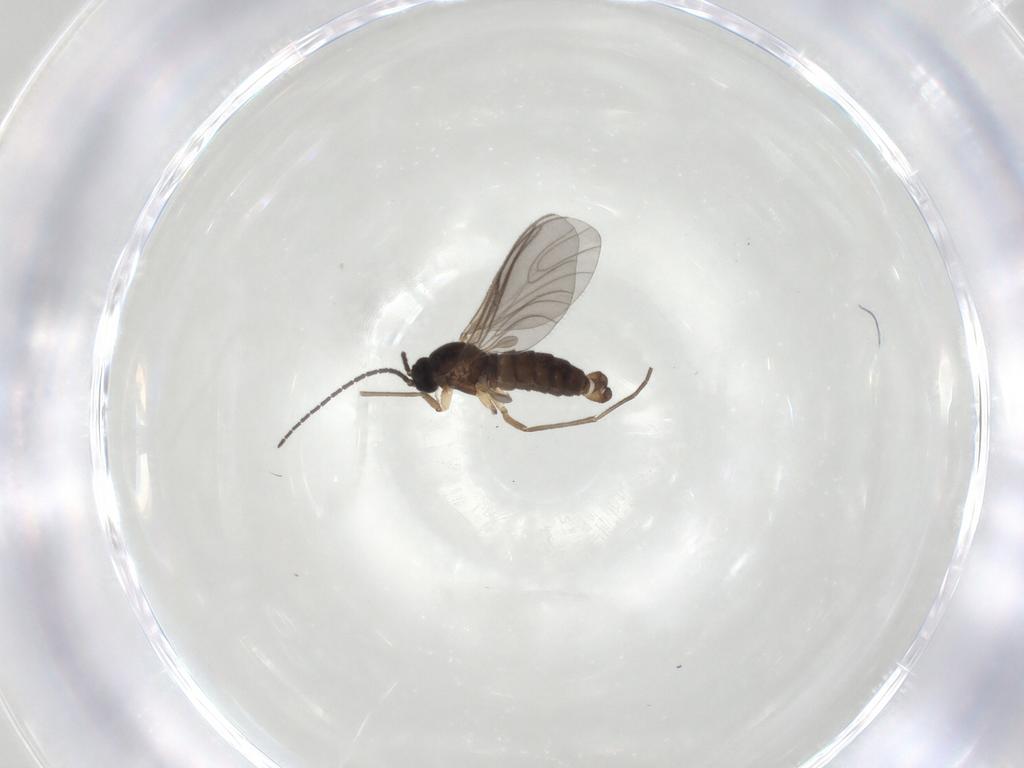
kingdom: Animalia
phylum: Arthropoda
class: Insecta
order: Diptera
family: Sciaridae
